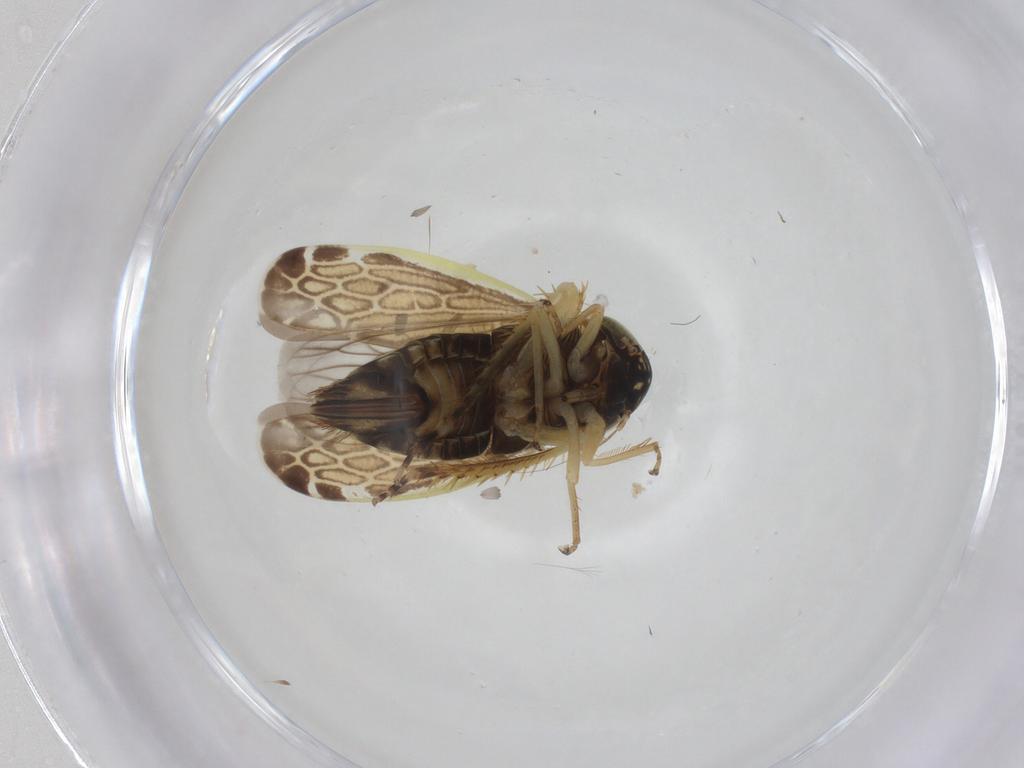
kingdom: Animalia
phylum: Arthropoda
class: Insecta
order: Hemiptera
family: Cicadellidae
